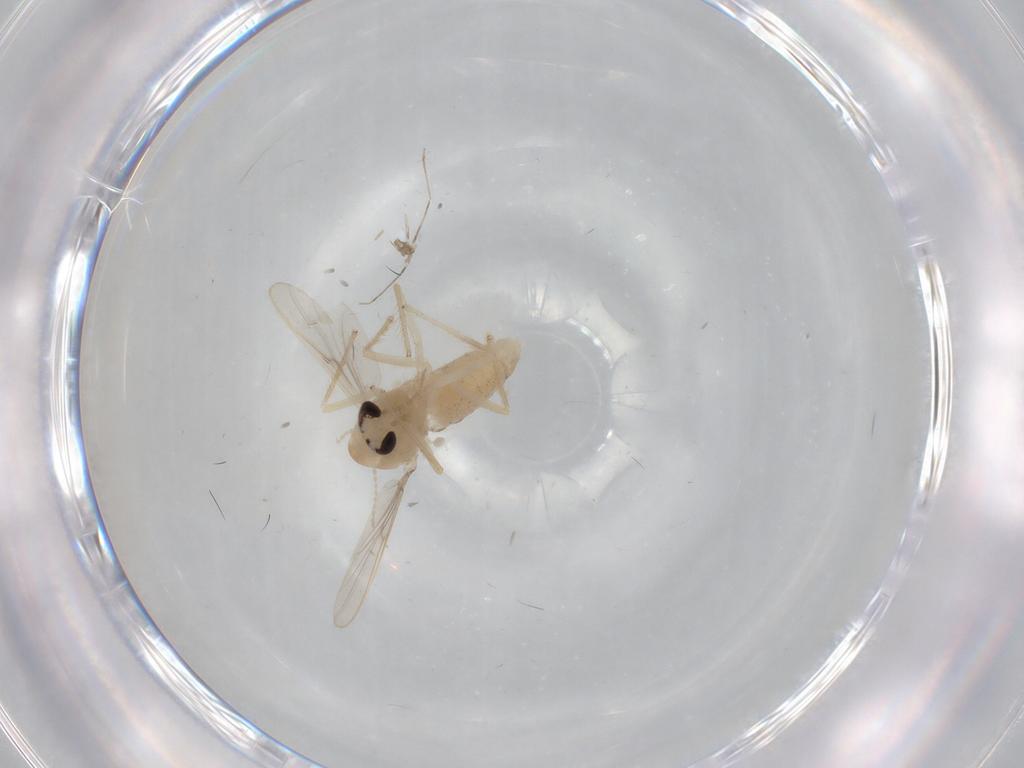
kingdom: Animalia
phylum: Arthropoda
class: Insecta
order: Diptera
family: Chironomidae
